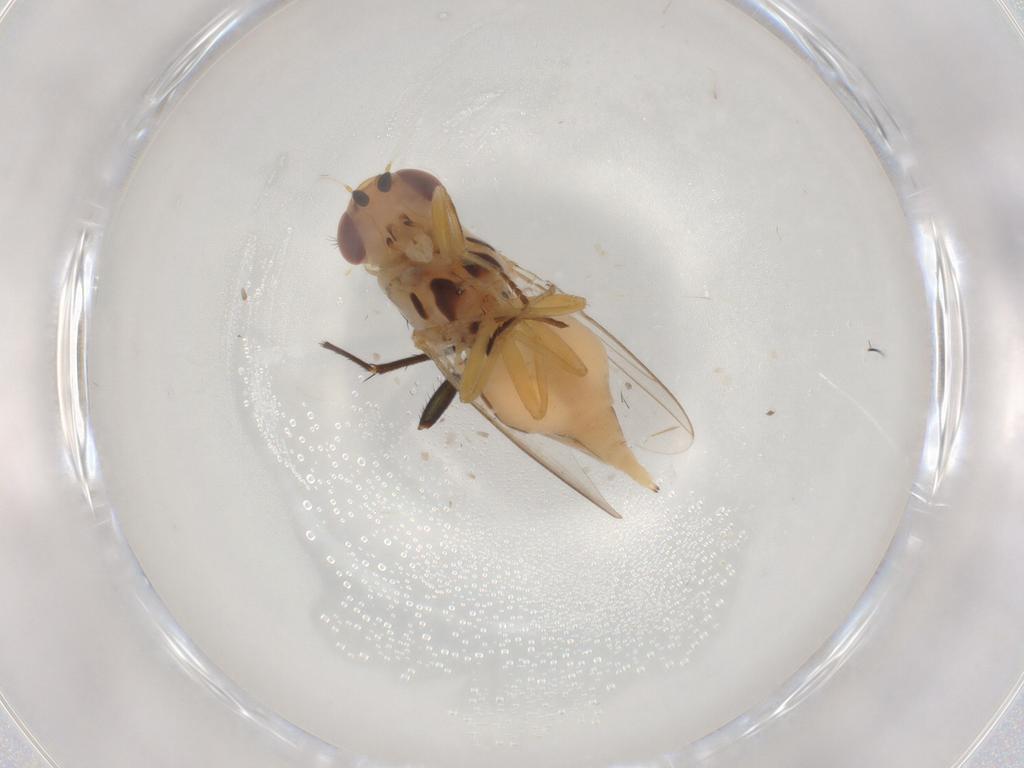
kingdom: Animalia
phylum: Arthropoda
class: Insecta
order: Diptera
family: Chloropidae
